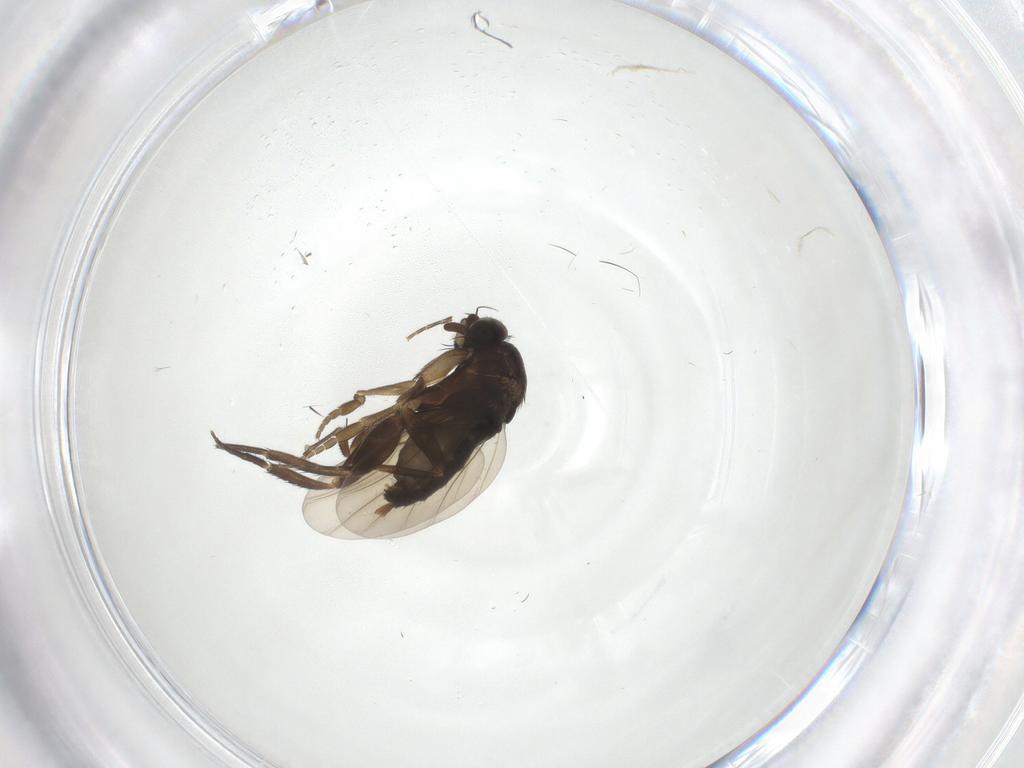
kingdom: Animalia
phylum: Arthropoda
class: Insecta
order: Diptera
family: Phoridae
